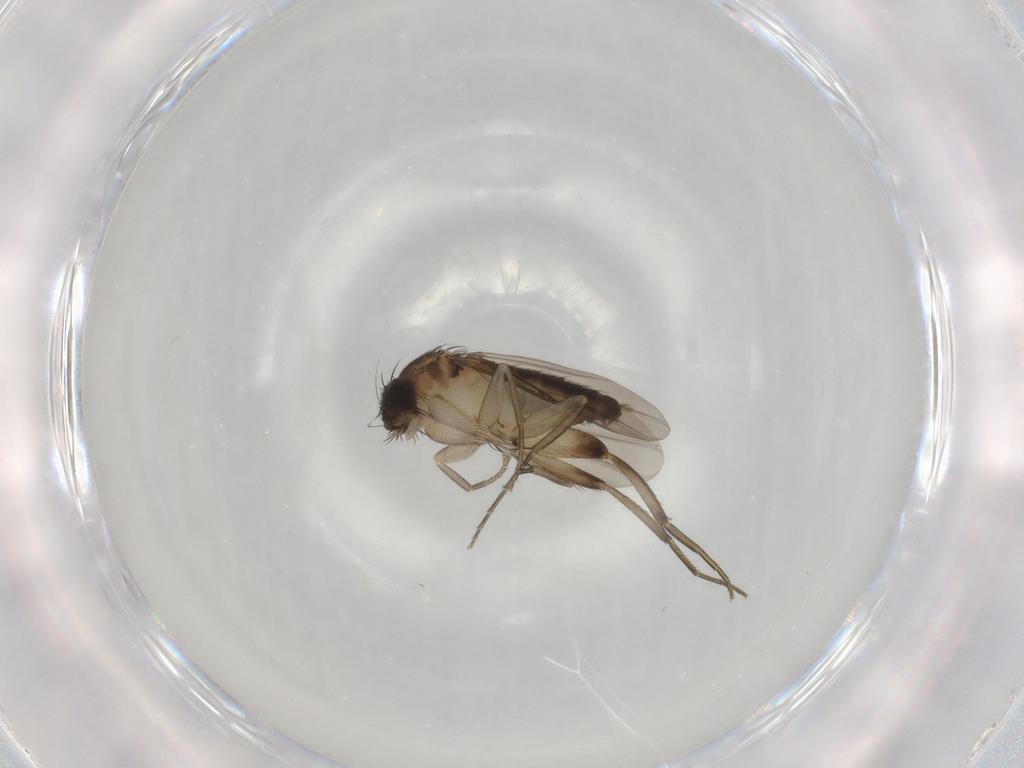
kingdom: Animalia
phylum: Arthropoda
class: Insecta
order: Diptera
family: Phoridae
